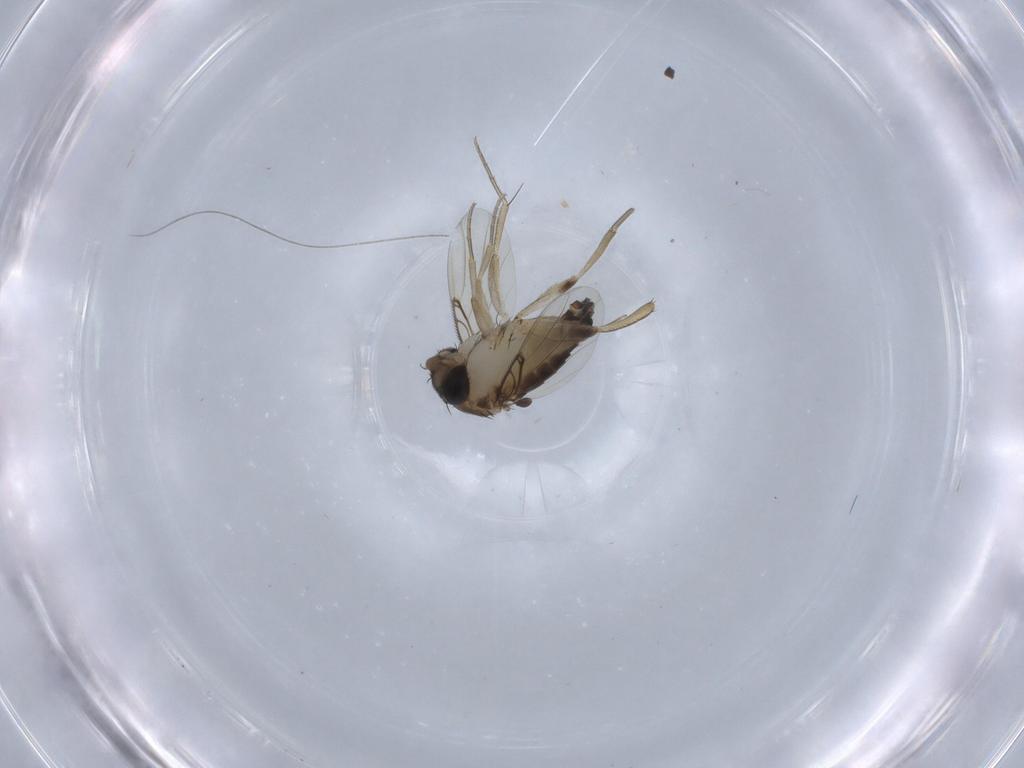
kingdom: Animalia
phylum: Arthropoda
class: Insecta
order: Diptera
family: Phoridae
